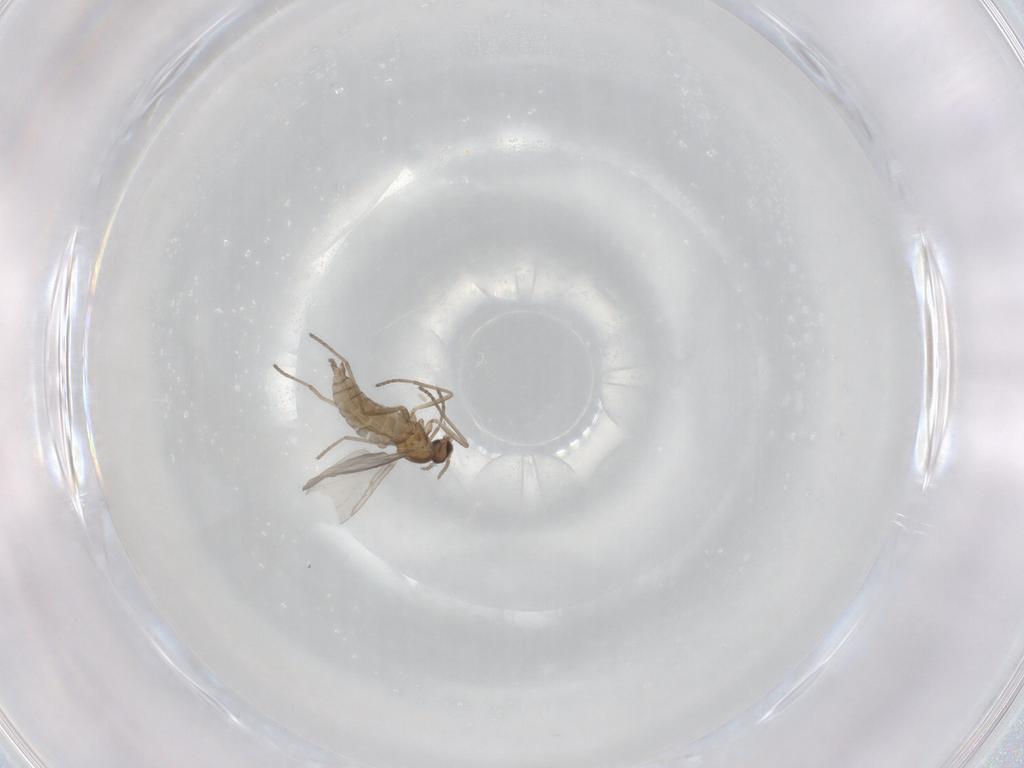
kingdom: Animalia
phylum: Arthropoda
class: Insecta
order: Diptera
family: Cecidomyiidae
